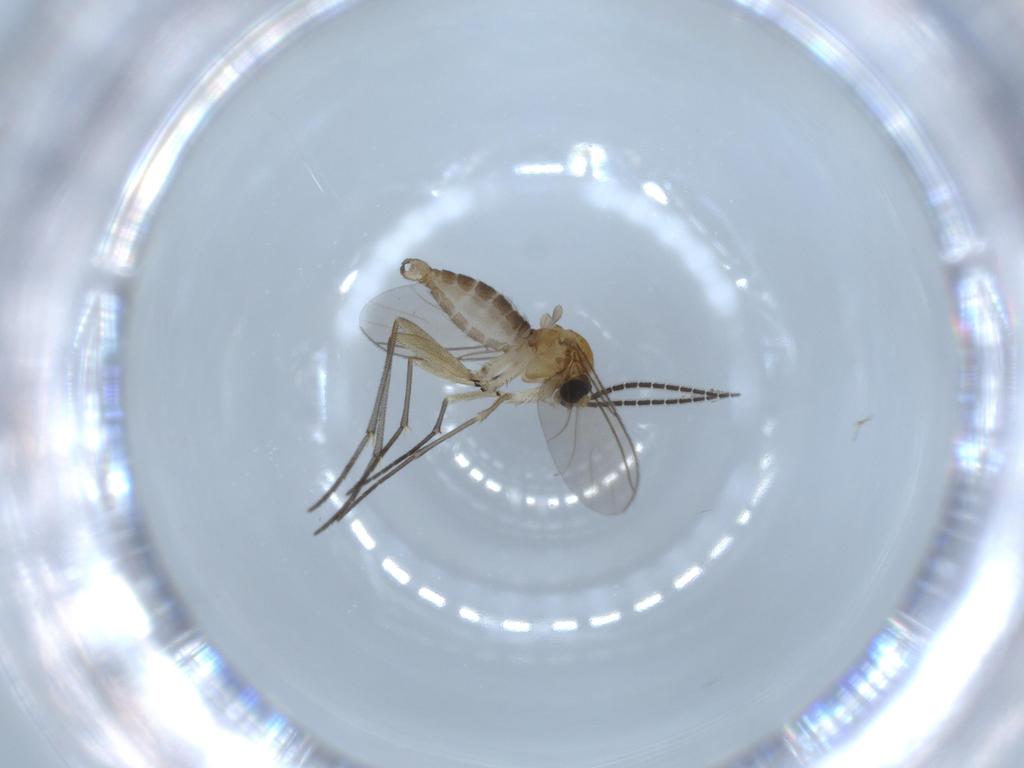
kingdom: Animalia
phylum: Arthropoda
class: Insecta
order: Diptera
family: Sciaridae
